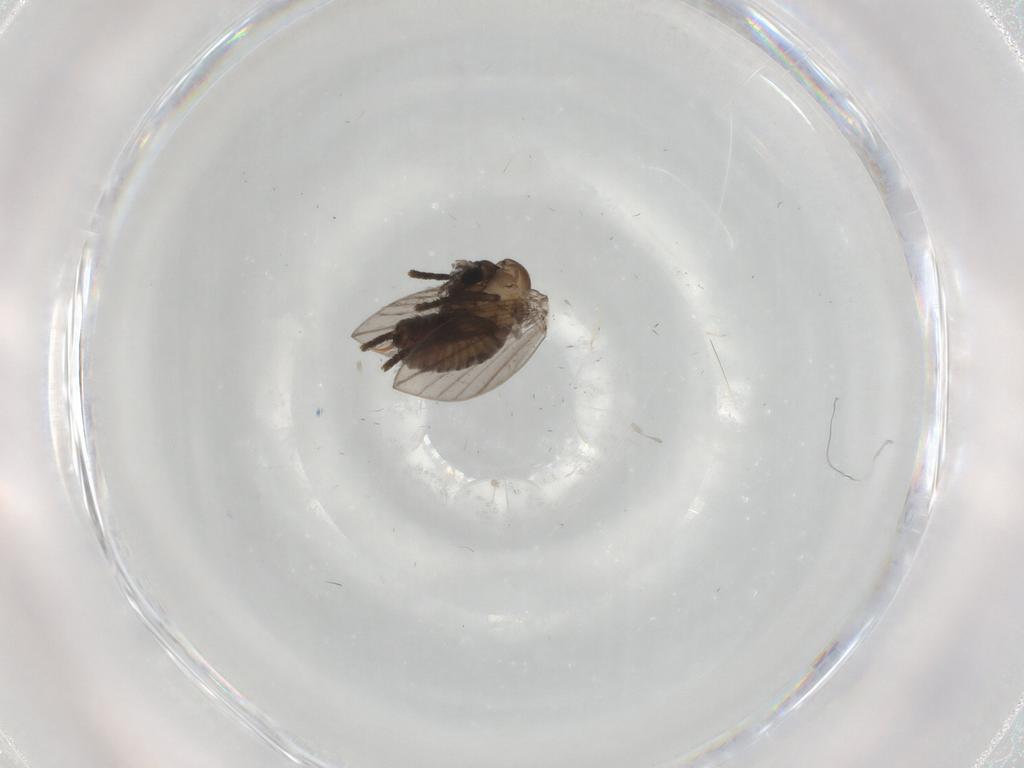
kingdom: Animalia
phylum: Arthropoda
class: Insecta
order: Diptera
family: Psychodidae
